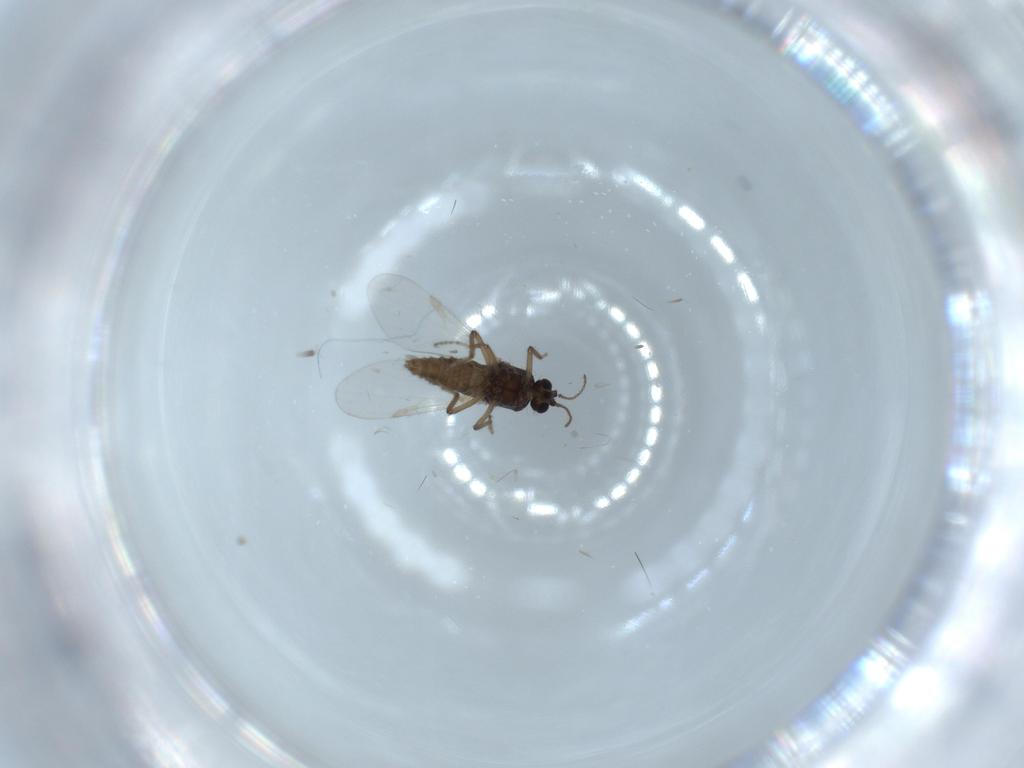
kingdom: Animalia
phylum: Arthropoda
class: Insecta
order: Diptera
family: Ceratopogonidae
